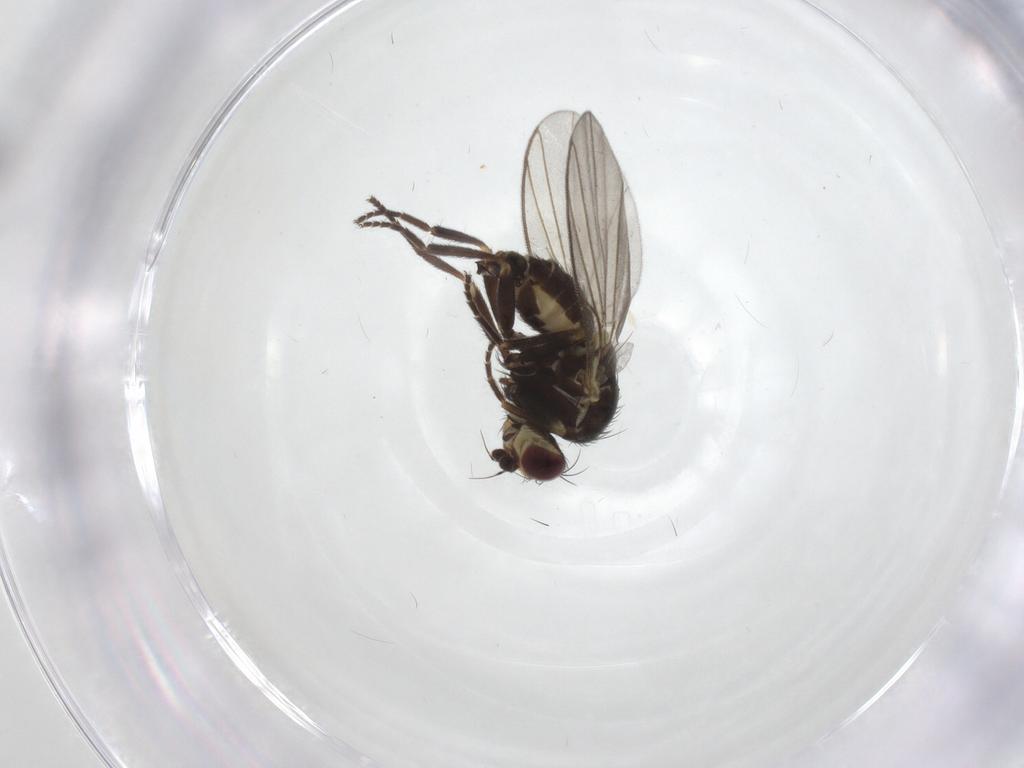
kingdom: Animalia
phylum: Arthropoda
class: Insecta
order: Diptera
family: Chironomidae
